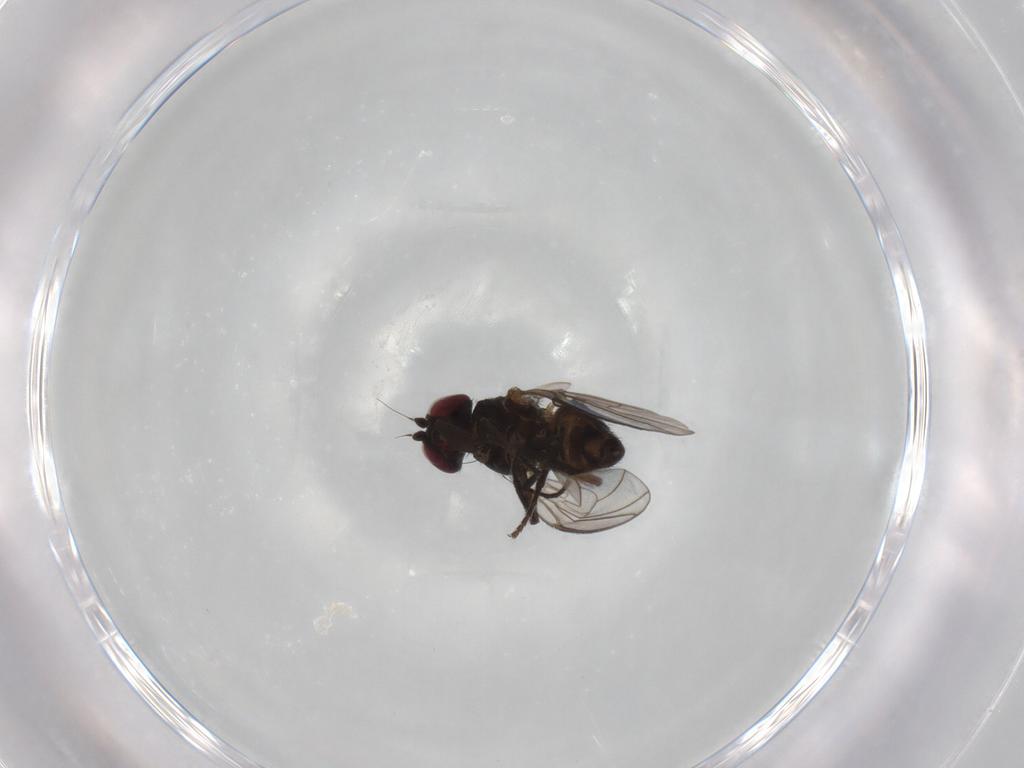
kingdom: Animalia
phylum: Arthropoda
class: Insecta
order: Diptera
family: Agromyzidae
